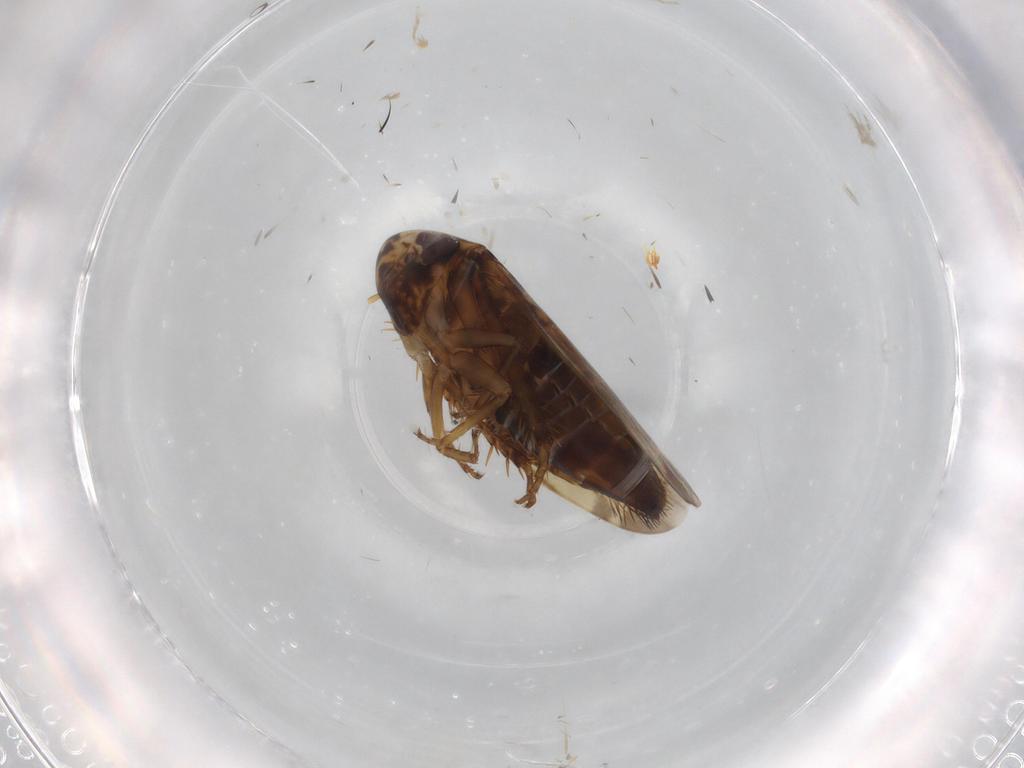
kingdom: Animalia
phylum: Arthropoda
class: Insecta
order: Hemiptera
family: Cicadellidae
